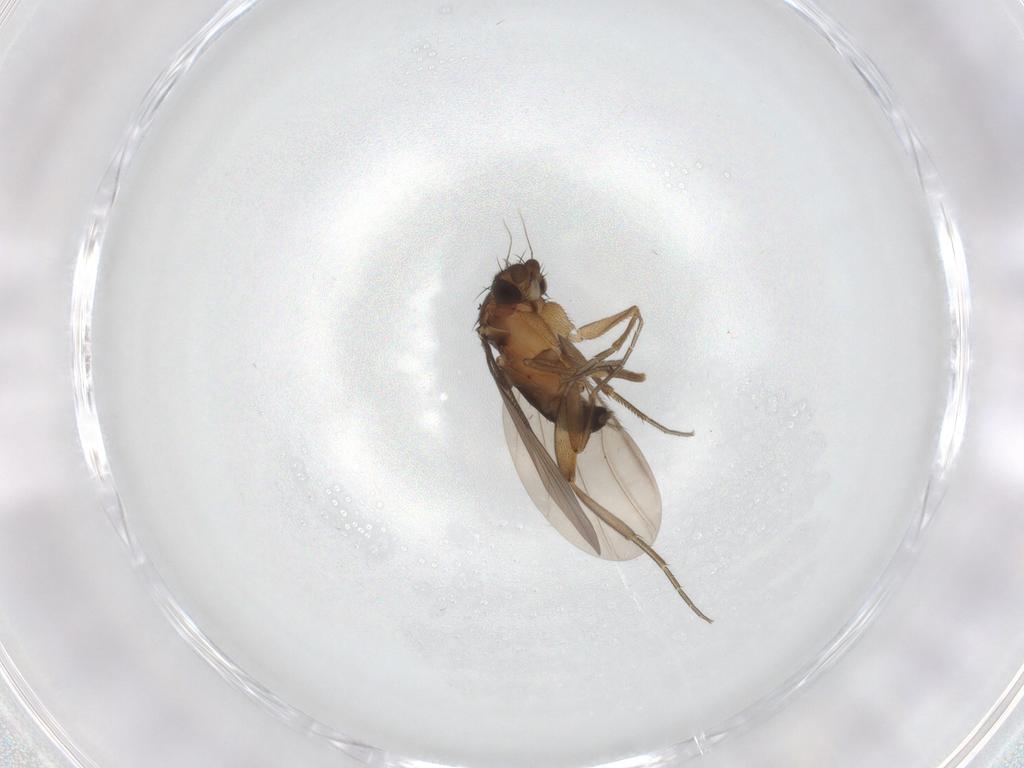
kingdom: Animalia
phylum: Arthropoda
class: Insecta
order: Diptera
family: Phoridae
